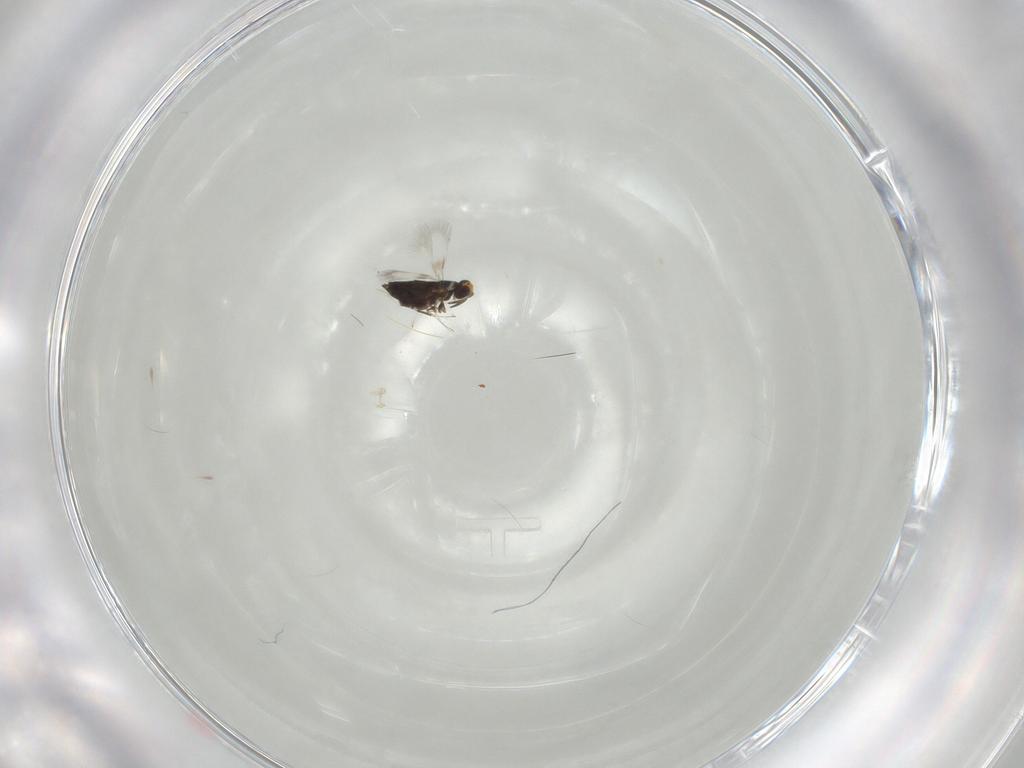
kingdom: Animalia
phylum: Arthropoda
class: Insecta
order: Hymenoptera
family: Signiphoridae
